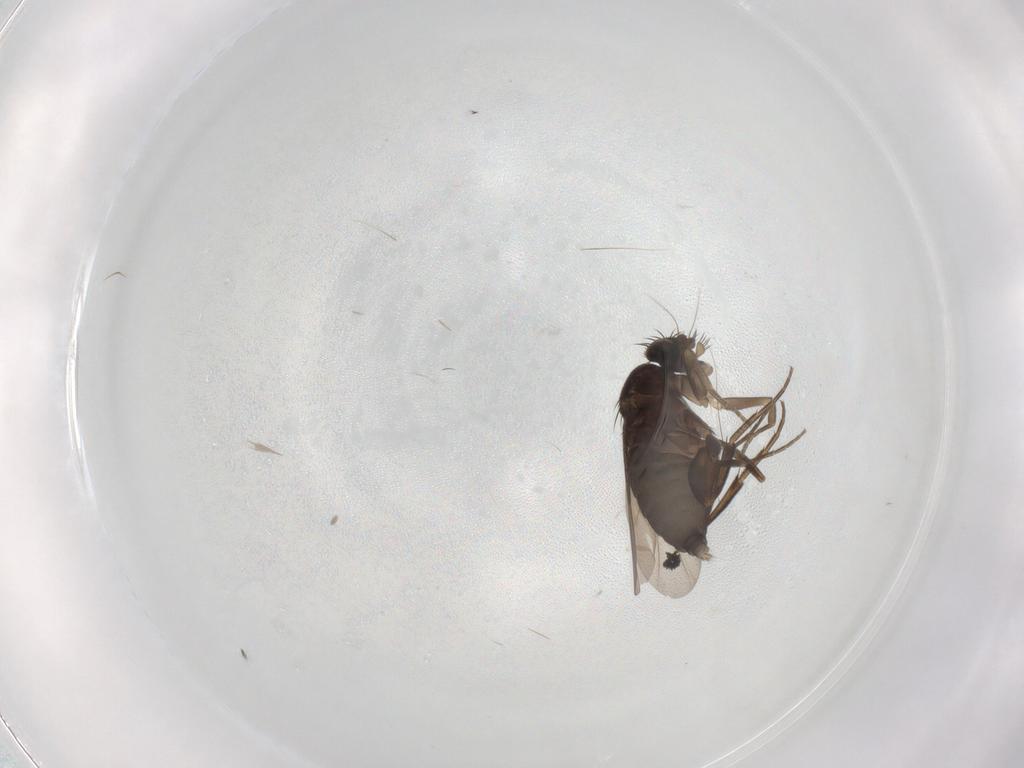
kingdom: Animalia
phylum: Arthropoda
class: Insecta
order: Diptera
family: Phoridae
